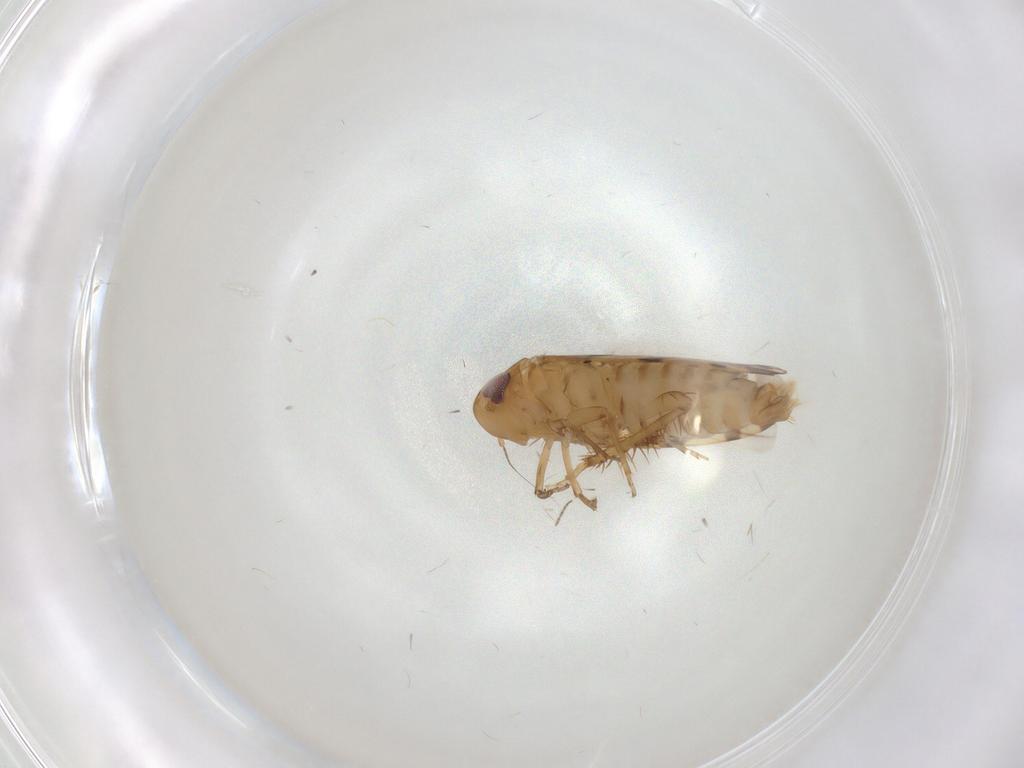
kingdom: Animalia
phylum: Arthropoda
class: Insecta
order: Hemiptera
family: Cicadellidae
